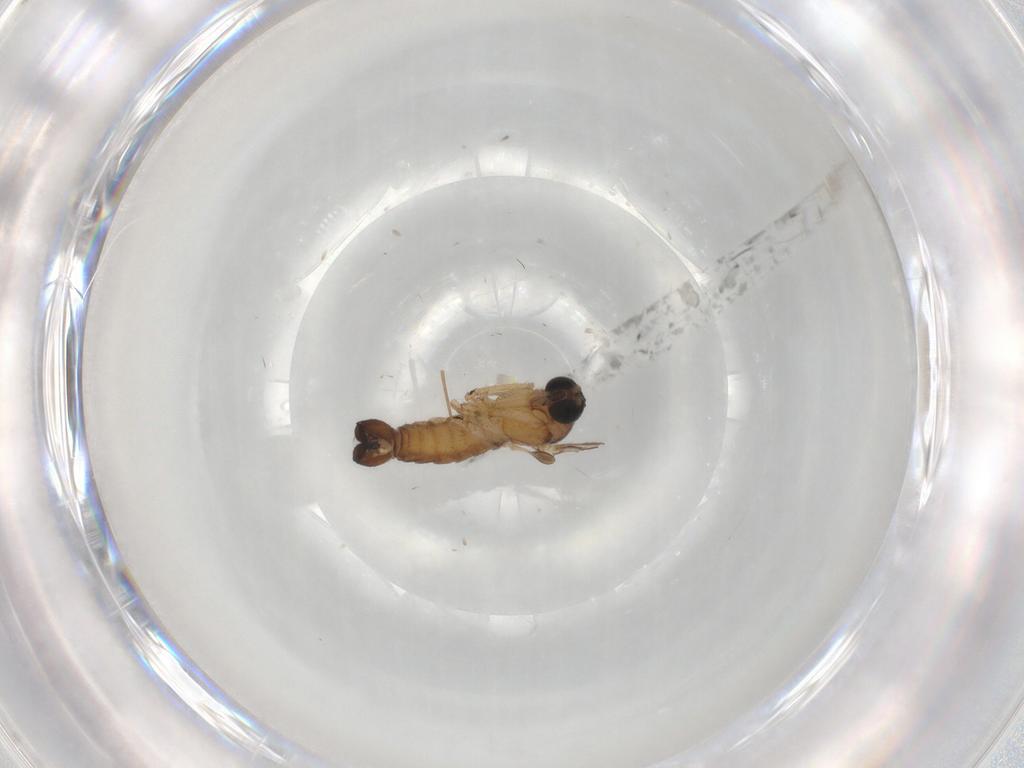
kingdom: Animalia
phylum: Arthropoda
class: Insecta
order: Diptera
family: Sciaridae
